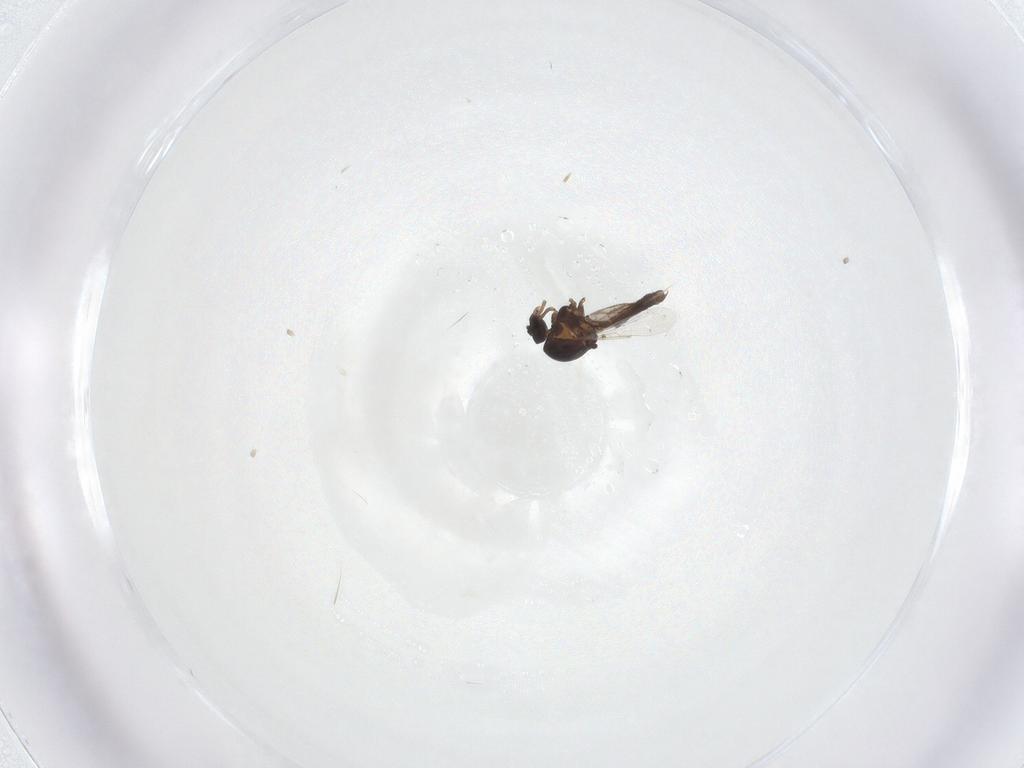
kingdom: Animalia
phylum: Arthropoda
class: Insecta
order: Diptera
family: Ceratopogonidae
